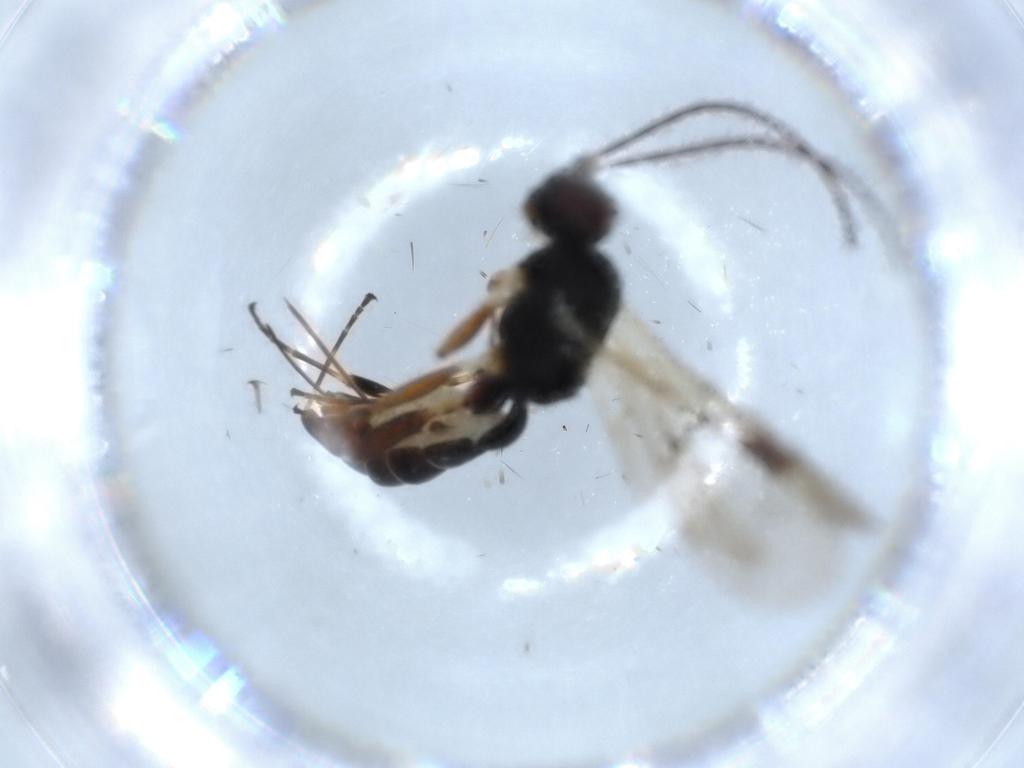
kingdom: Animalia
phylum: Arthropoda
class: Insecta
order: Hymenoptera
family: Ichneumonidae
